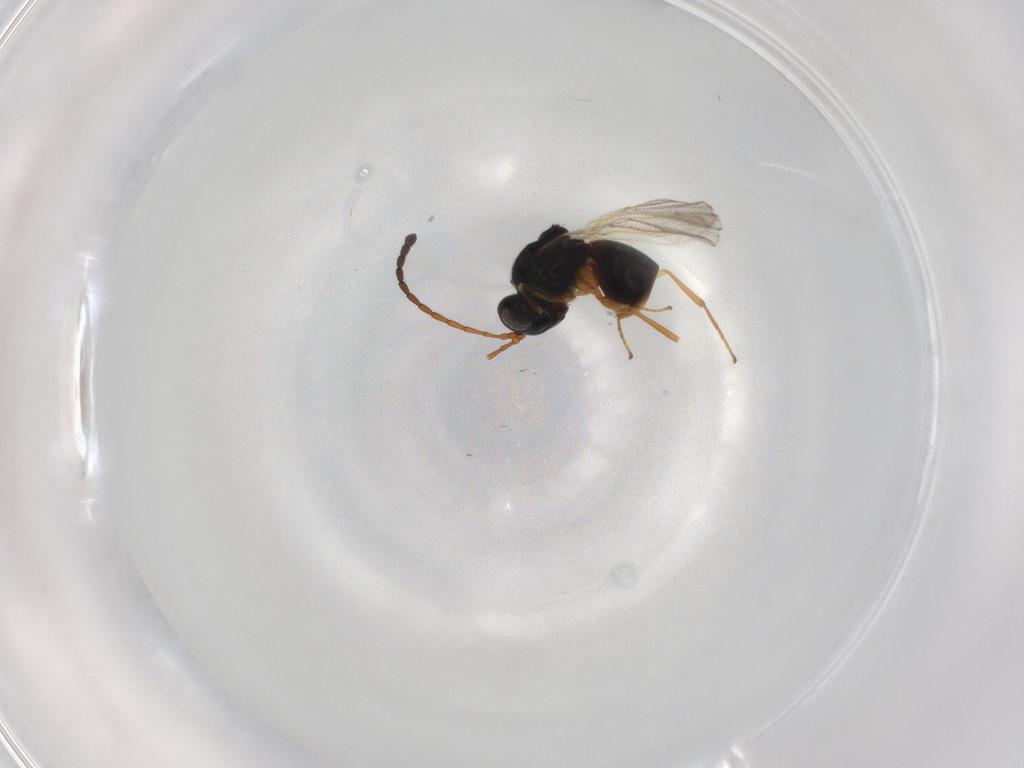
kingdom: Animalia
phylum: Arthropoda
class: Insecta
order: Hymenoptera
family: Figitidae
